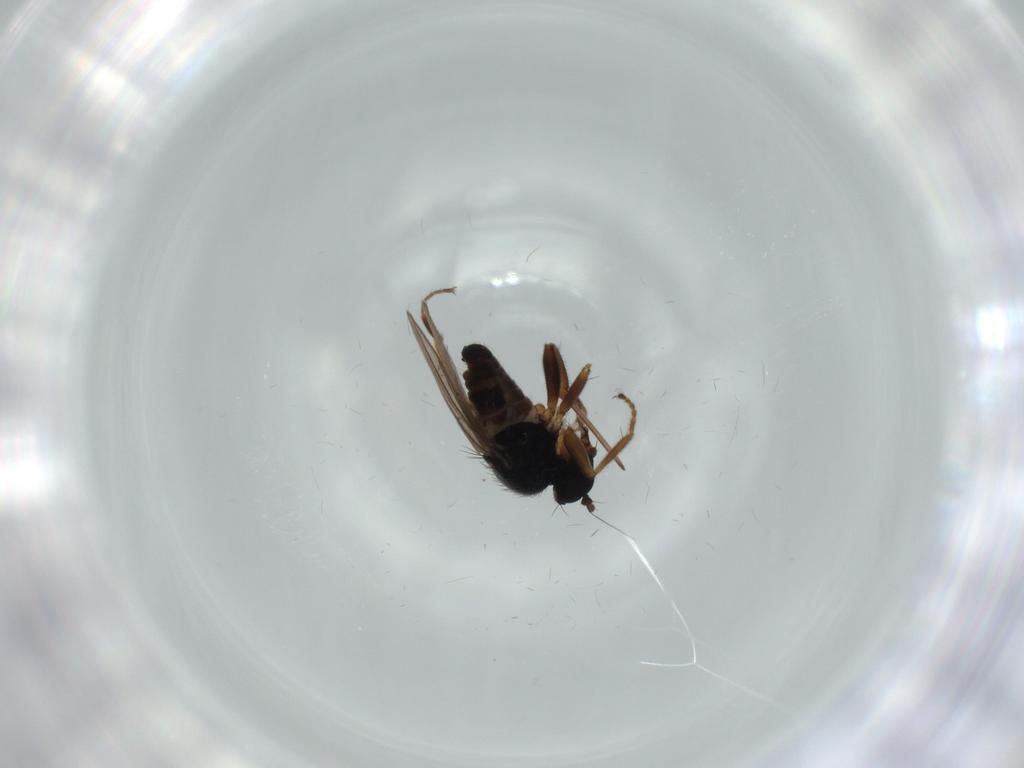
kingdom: Animalia
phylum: Arthropoda
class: Insecta
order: Diptera
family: Hybotidae
